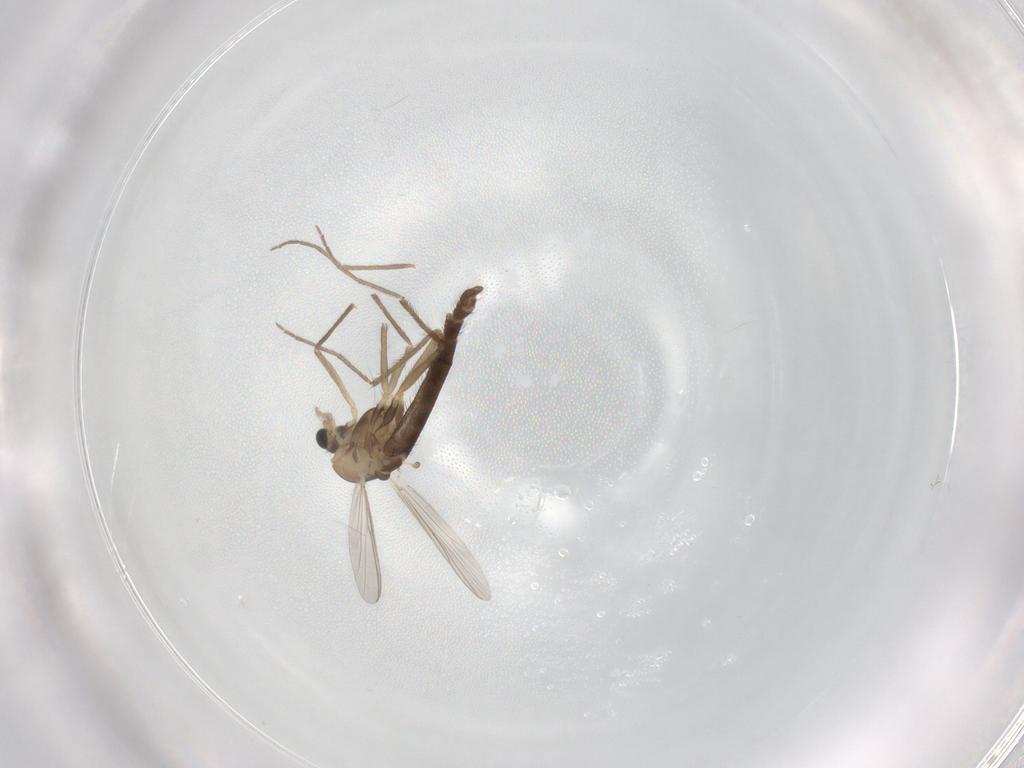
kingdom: Animalia
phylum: Arthropoda
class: Insecta
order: Diptera
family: Chironomidae
